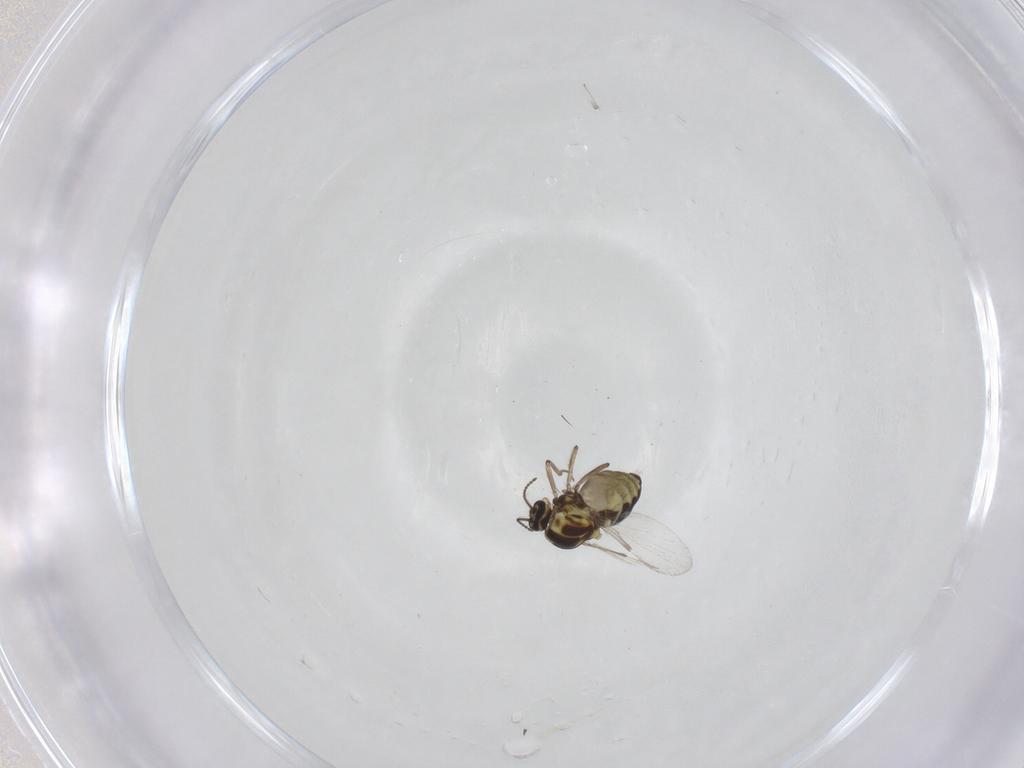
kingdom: Animalia
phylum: Arthropoda
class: Insecta
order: Diptera
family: Ceratopogonidae
